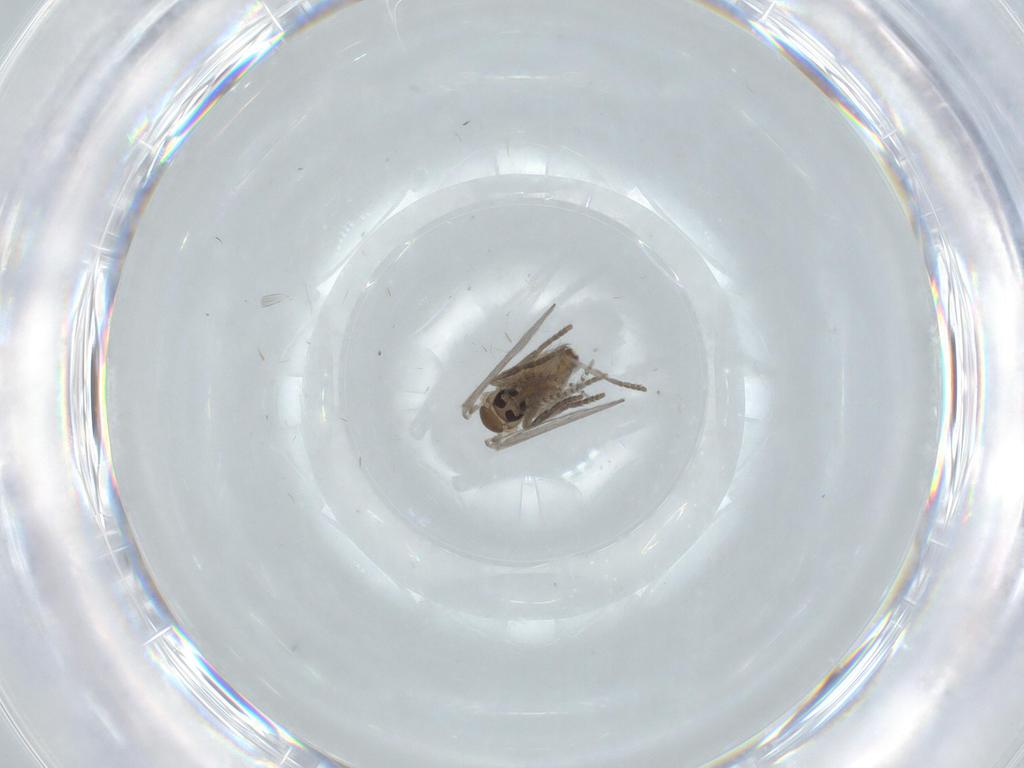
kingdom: Animalia
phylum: Arthropoda
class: Insecta
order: Diptera
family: Psychodidae
